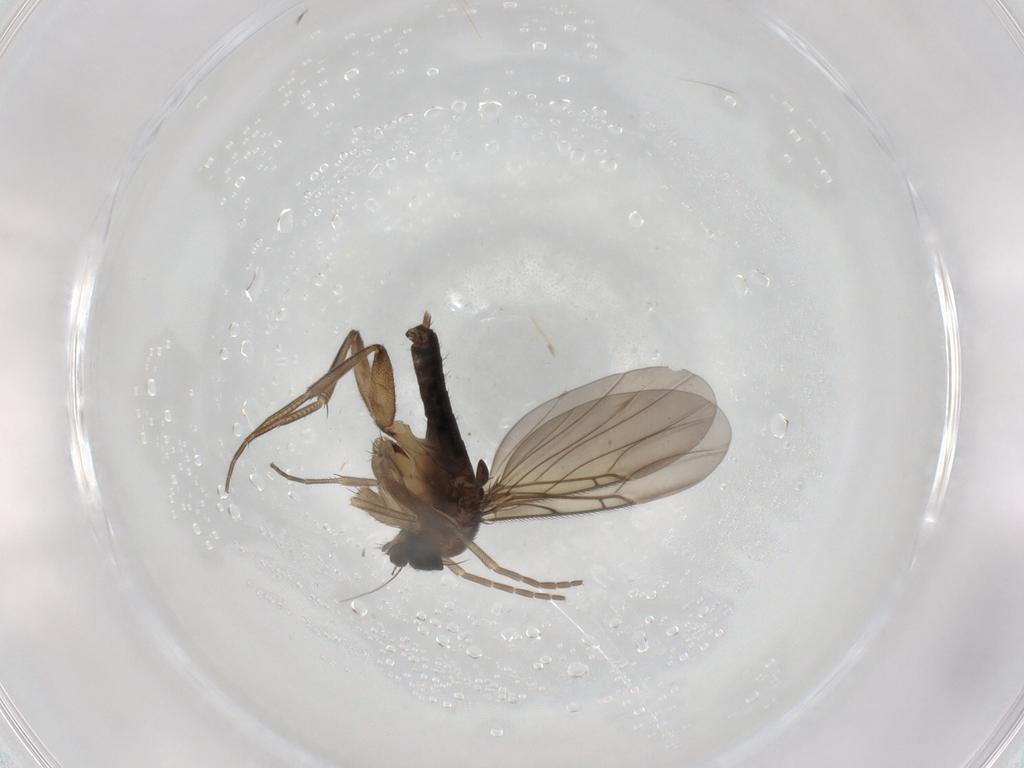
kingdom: Animalia
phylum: Arthropoda
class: Insecta
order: Diptera
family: Phoridae
